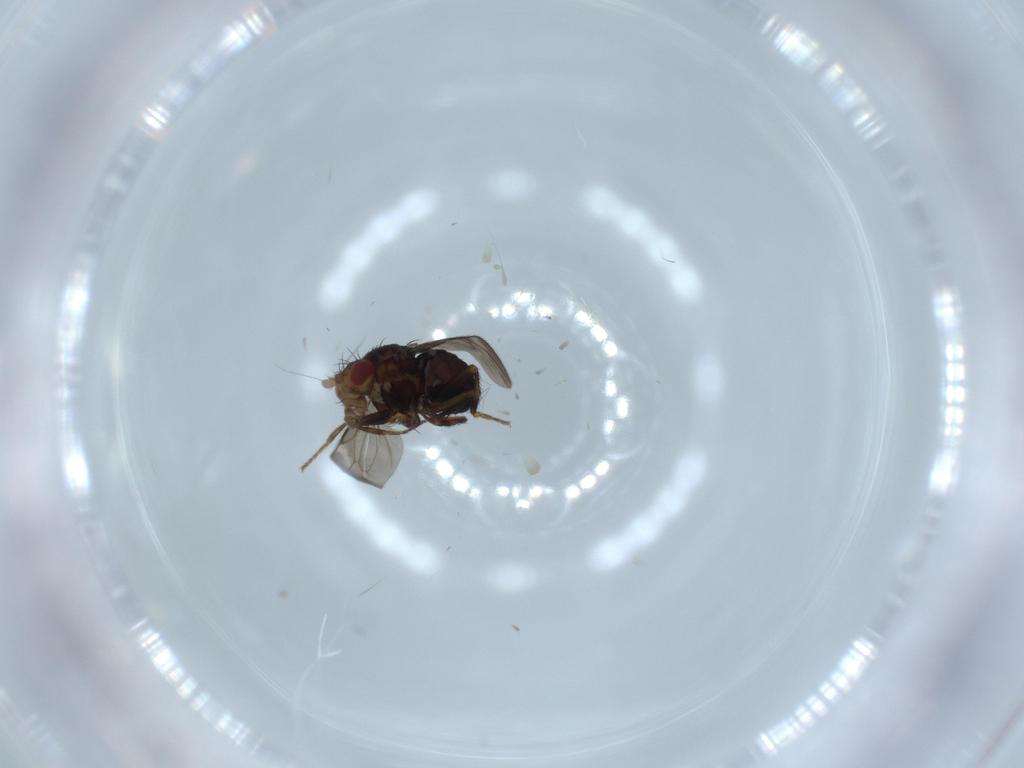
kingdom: Animalia
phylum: Arthropoda
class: Insecta
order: Diptera
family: Sphaeroceridae
